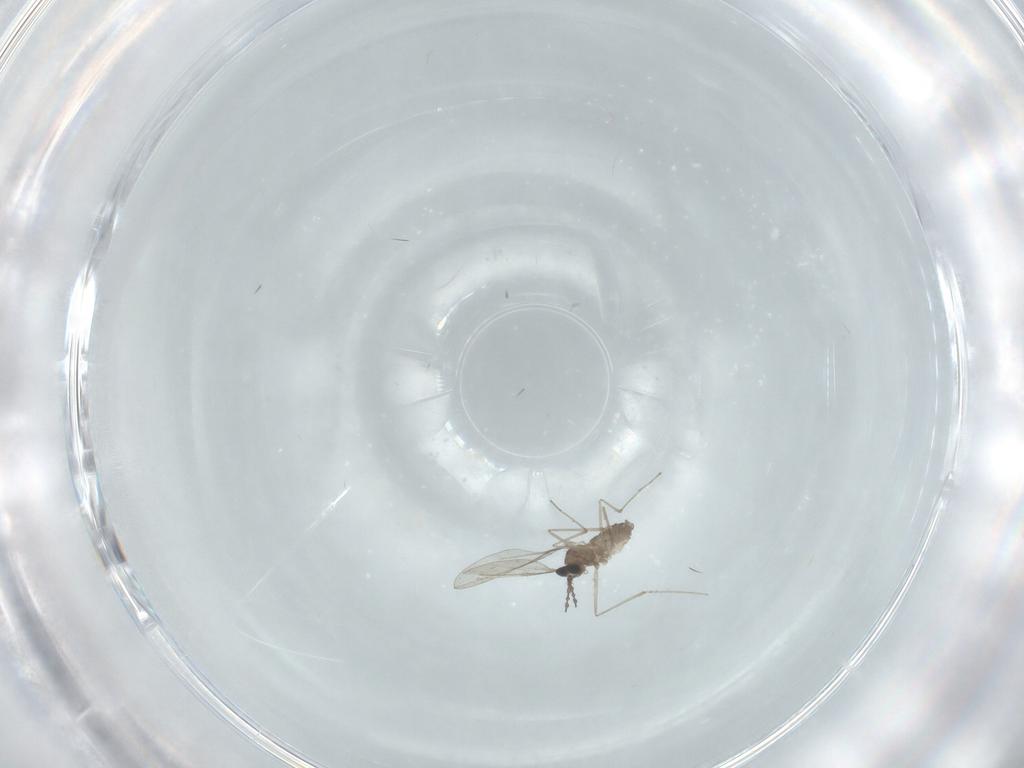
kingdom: Animalia
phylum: Arthropoda
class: Insecta
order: Diptera
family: Cecidomyiidae
